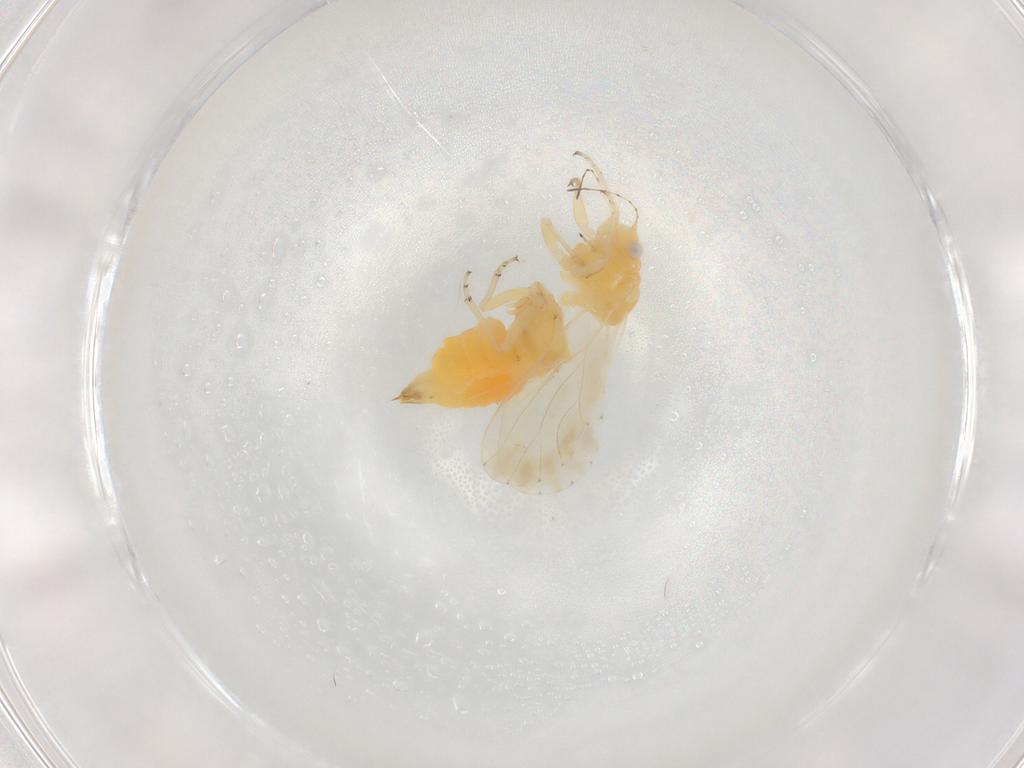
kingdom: Animalia
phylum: Arthropoda
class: Insecta
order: Hemiptera
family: Psyllidae
